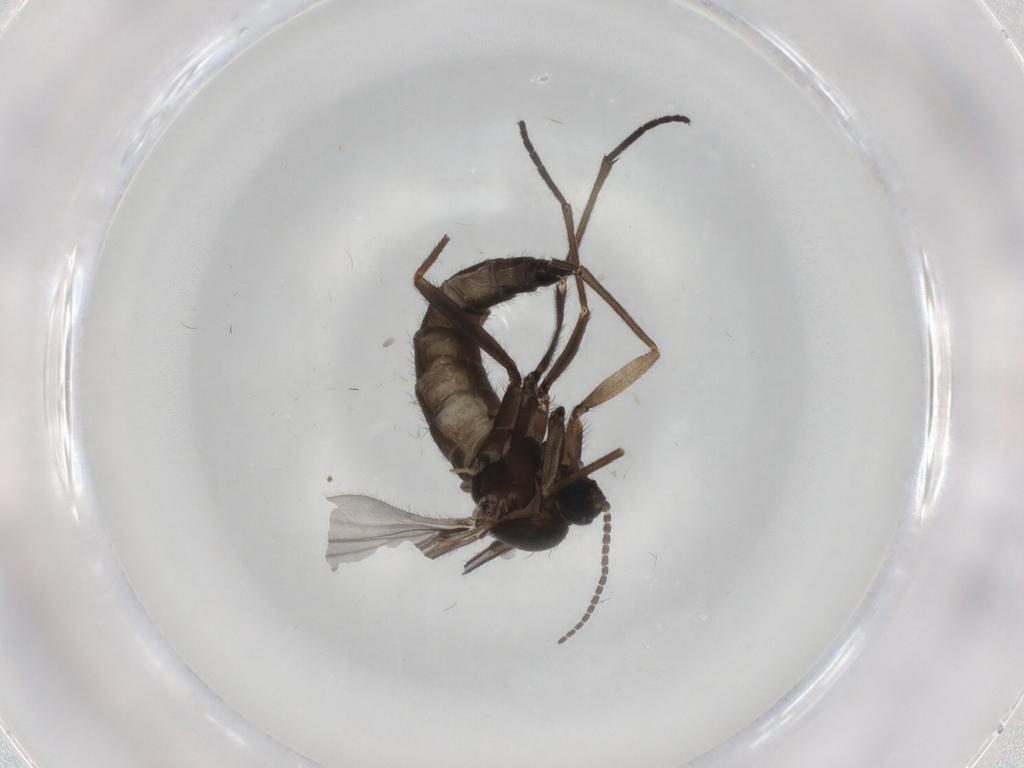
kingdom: Animalia
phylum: Arthropoda
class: Insecta
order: Diptera
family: Sciaridae
